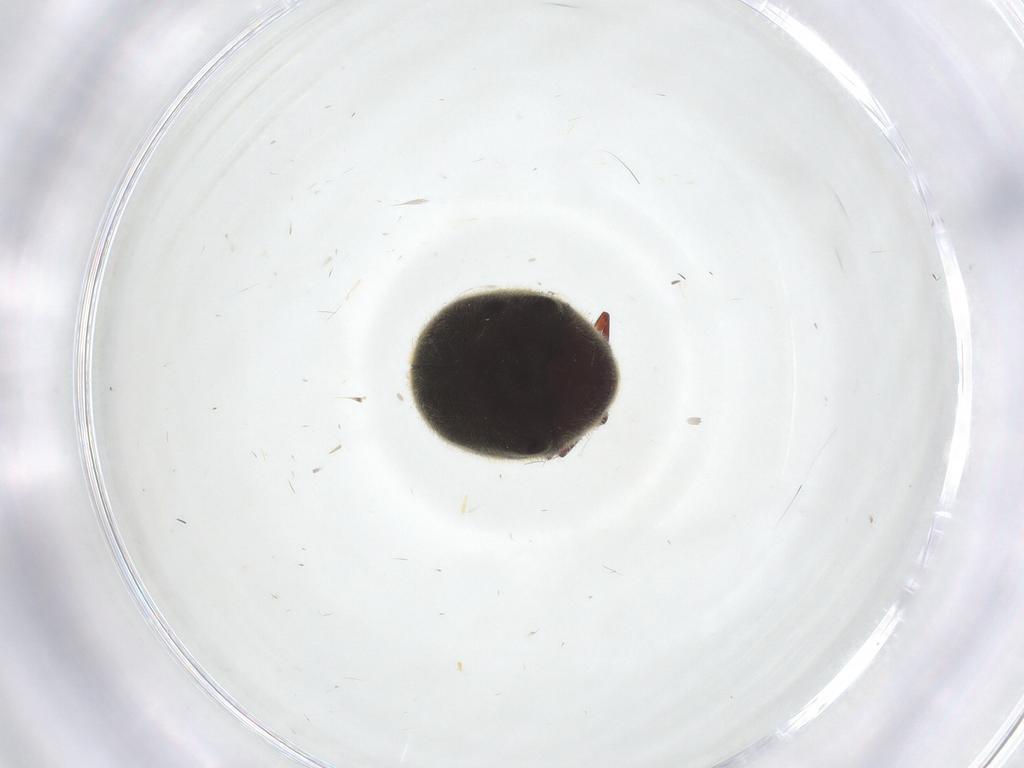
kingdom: Animalia
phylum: Arthropoda
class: Insecta
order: Coleoptera
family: Ptinidae
